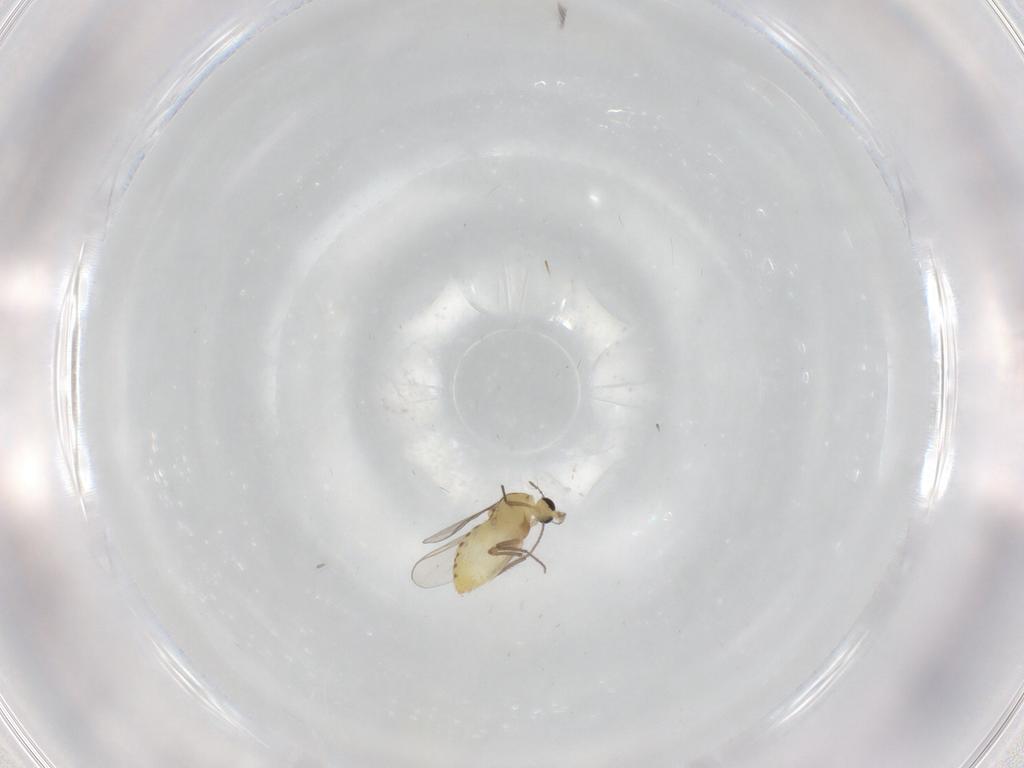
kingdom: Animalia
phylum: Arthropoda
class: Insecta
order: Diptera
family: Chironomidae
